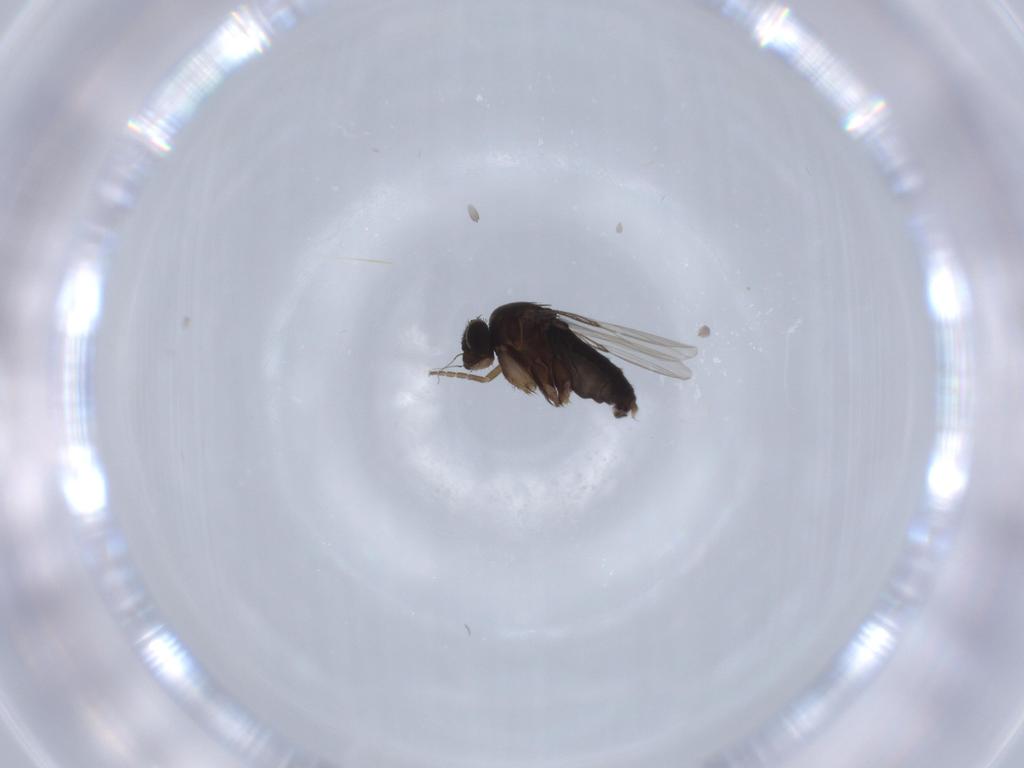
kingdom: Animalia
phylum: Arthropoda
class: Insecta
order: Diptera
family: Phoridae
